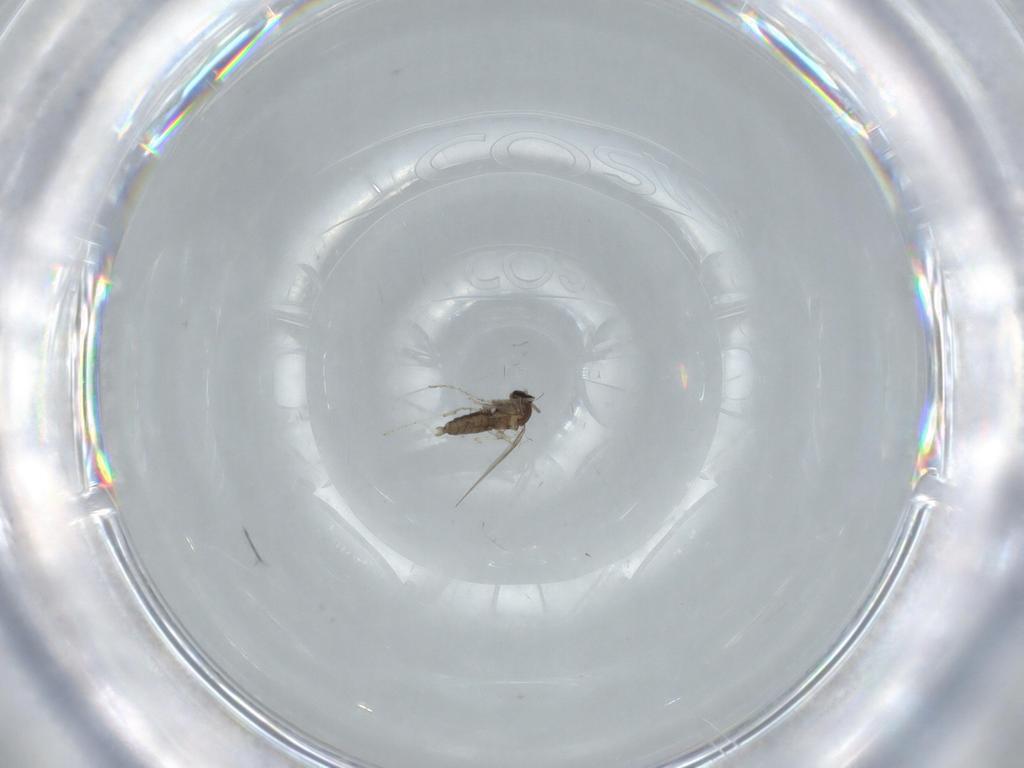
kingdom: Animalia
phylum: Arthropoda
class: Insecta
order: Diptera
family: Cecidomyiidae
